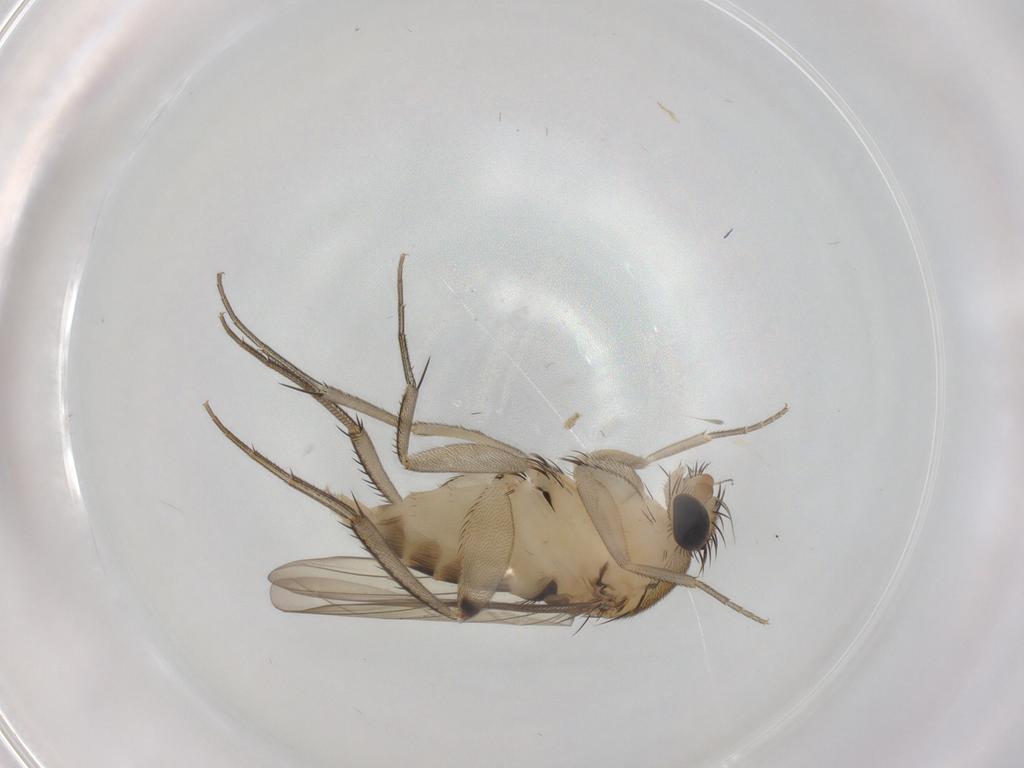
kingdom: Animalia
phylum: Arthropoda
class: Insecta
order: Diptera
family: Phoridae
